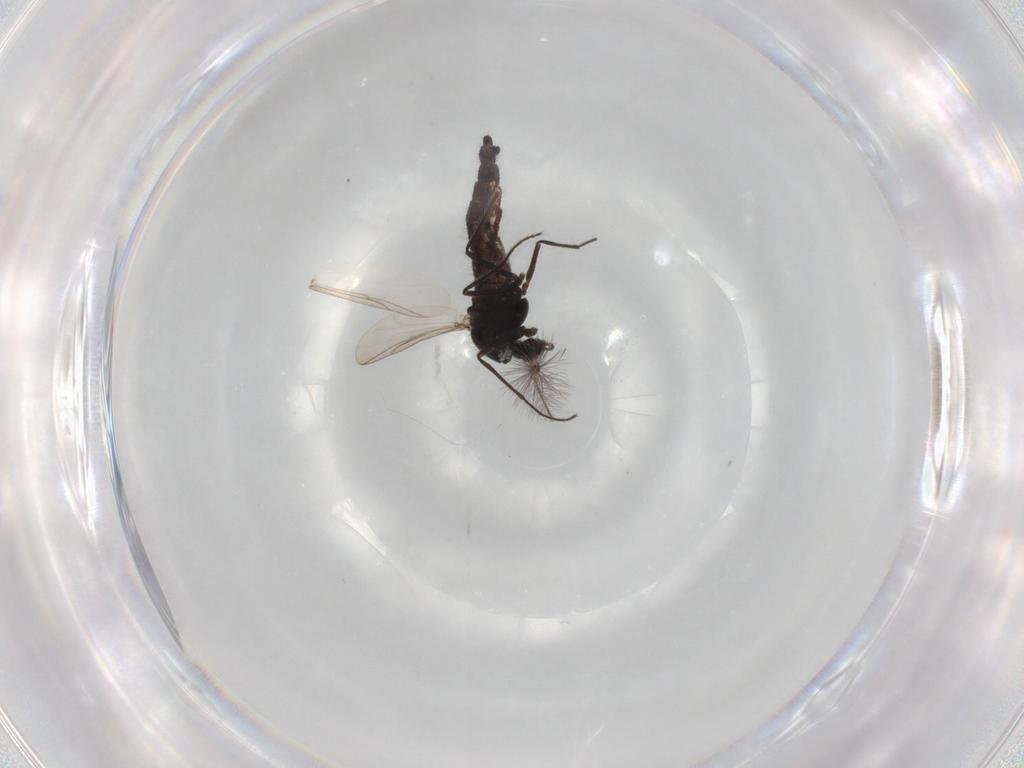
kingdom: Animalia
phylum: Arthropoda
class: Insecta
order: Diptera
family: Chironomidae
